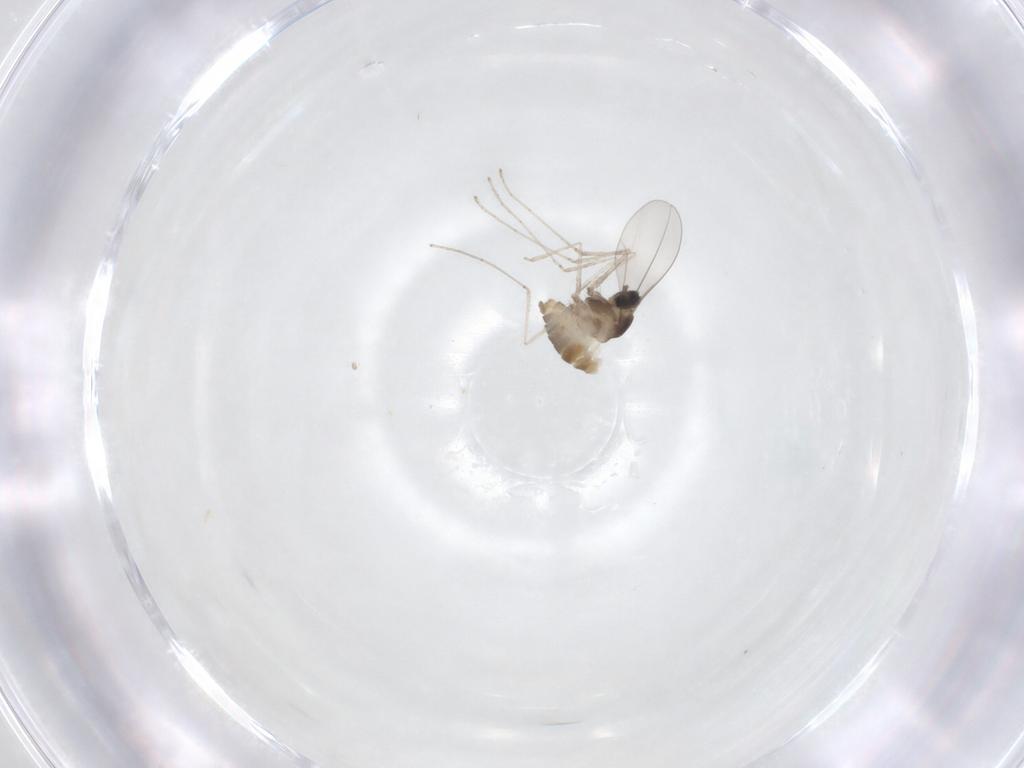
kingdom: Animalia
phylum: Arthropoda
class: Insecta
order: Diptera
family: Cecidomyiidae
